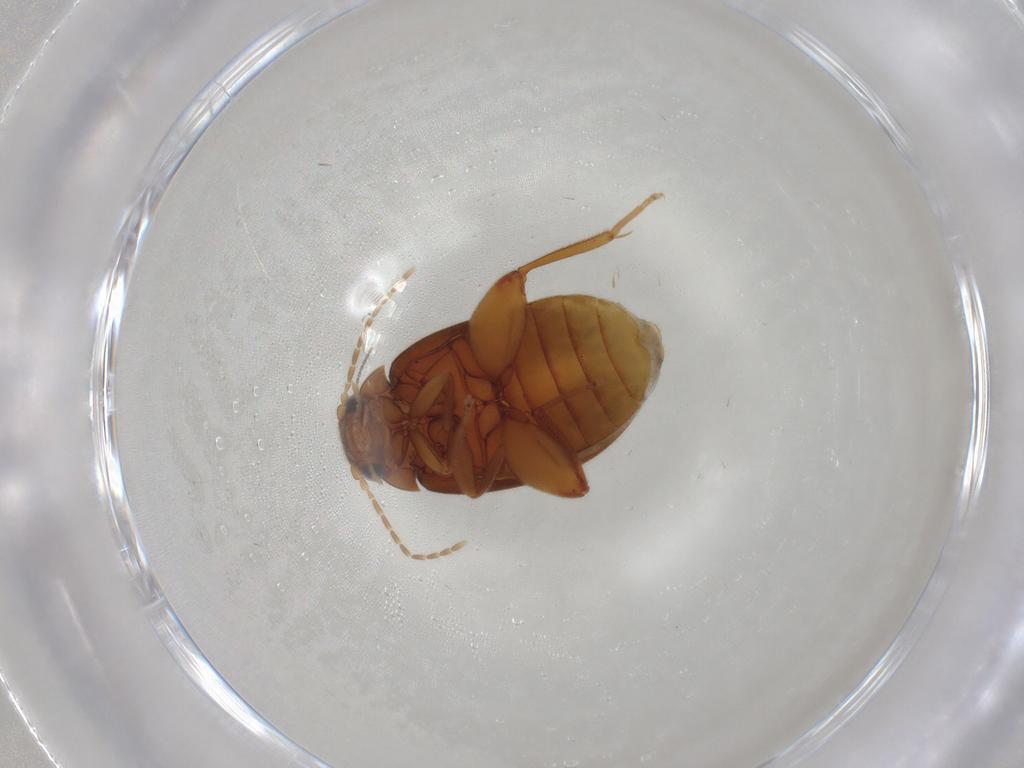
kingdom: Animalia
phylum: Arthropoda
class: Insecta
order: Coleoptera
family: Scirtidae
